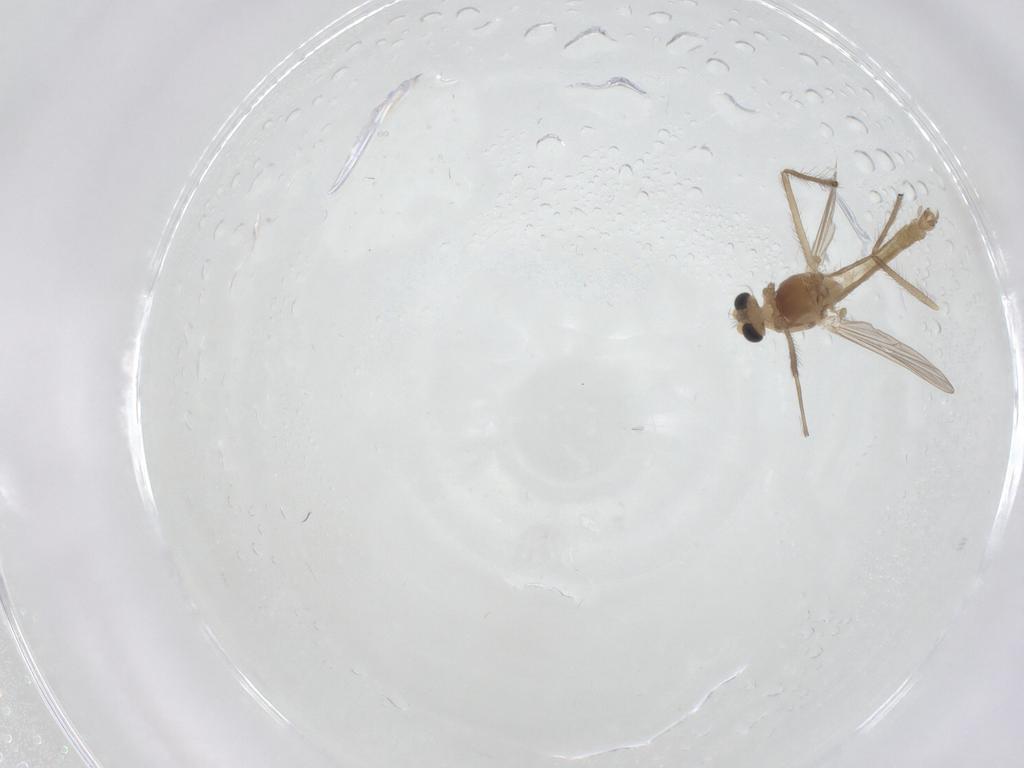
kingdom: Animalia
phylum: Arthropoda
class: Insecta
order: Diptera
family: Chironomidae
